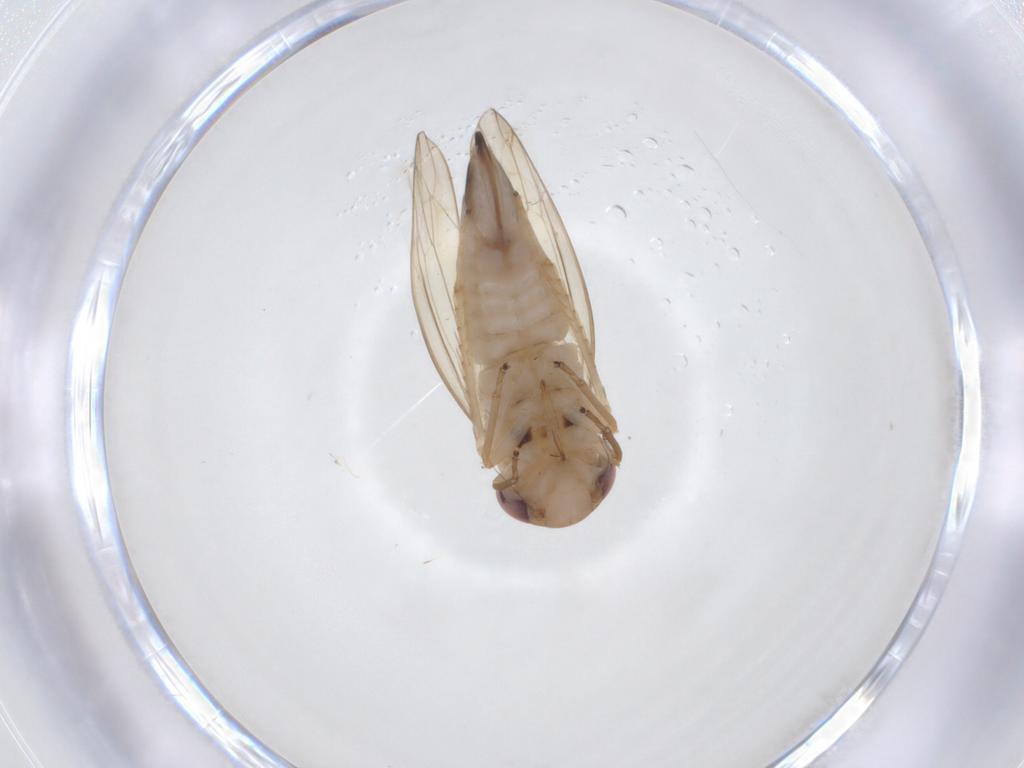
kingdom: Animalia
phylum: Arthropoda
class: Insecta
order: Hemiptera
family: Cicadellidae
